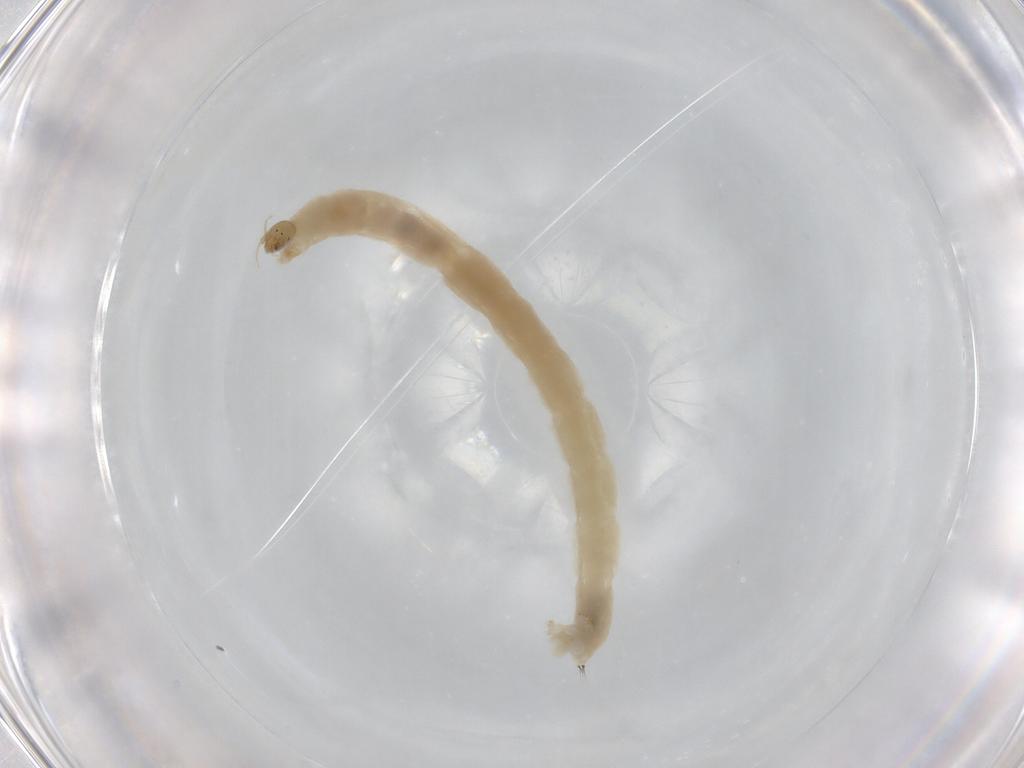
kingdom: Animalia
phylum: Arthropoda
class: Insecta
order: Diptera
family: Chironomidae
